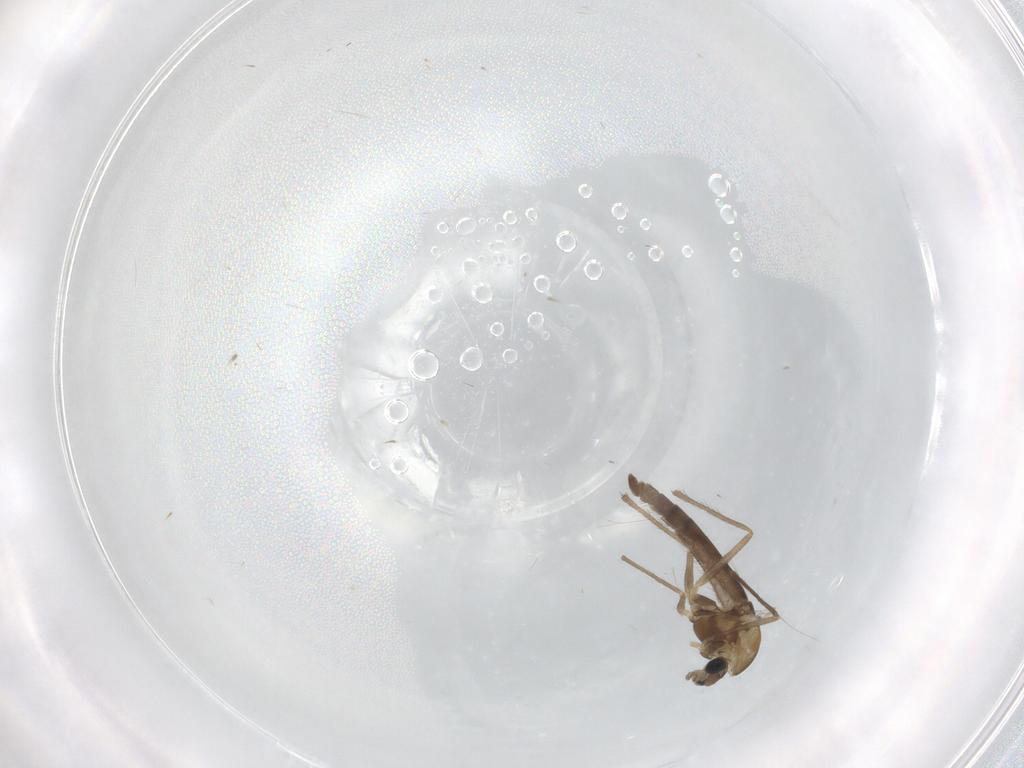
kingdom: Animalia
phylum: Arthropoda
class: Insecta
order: Diptera
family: Chironomidae
